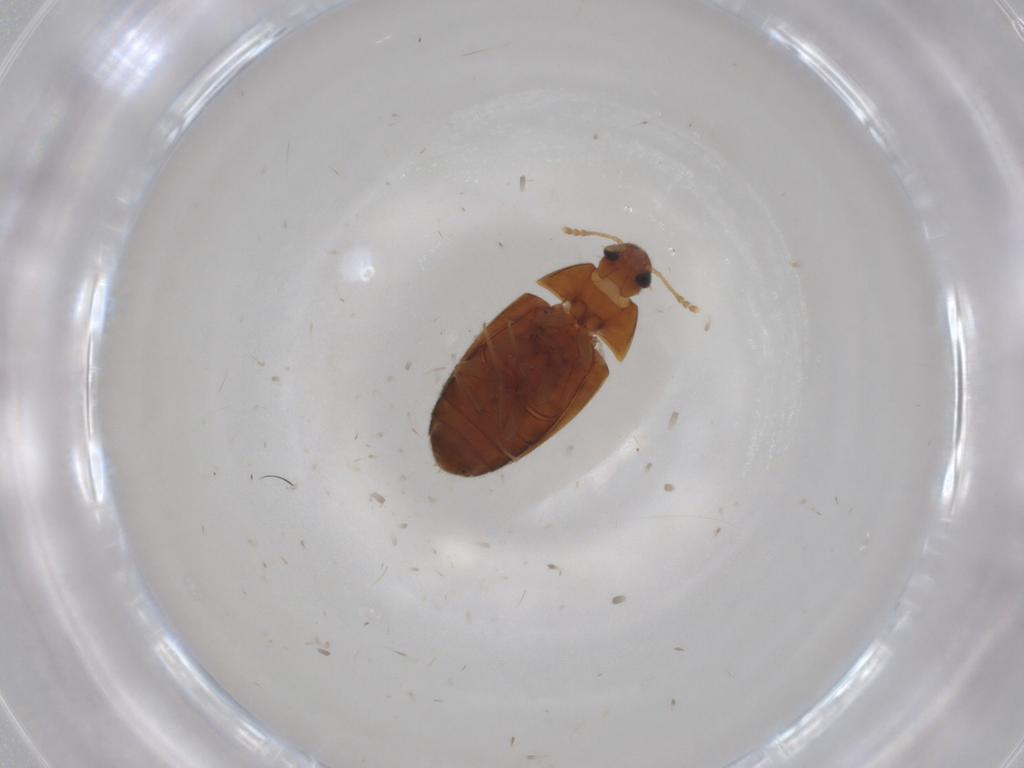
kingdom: Animalia
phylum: Arthropoda
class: Insecta
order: Coleoptera
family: Mycetophagidae
